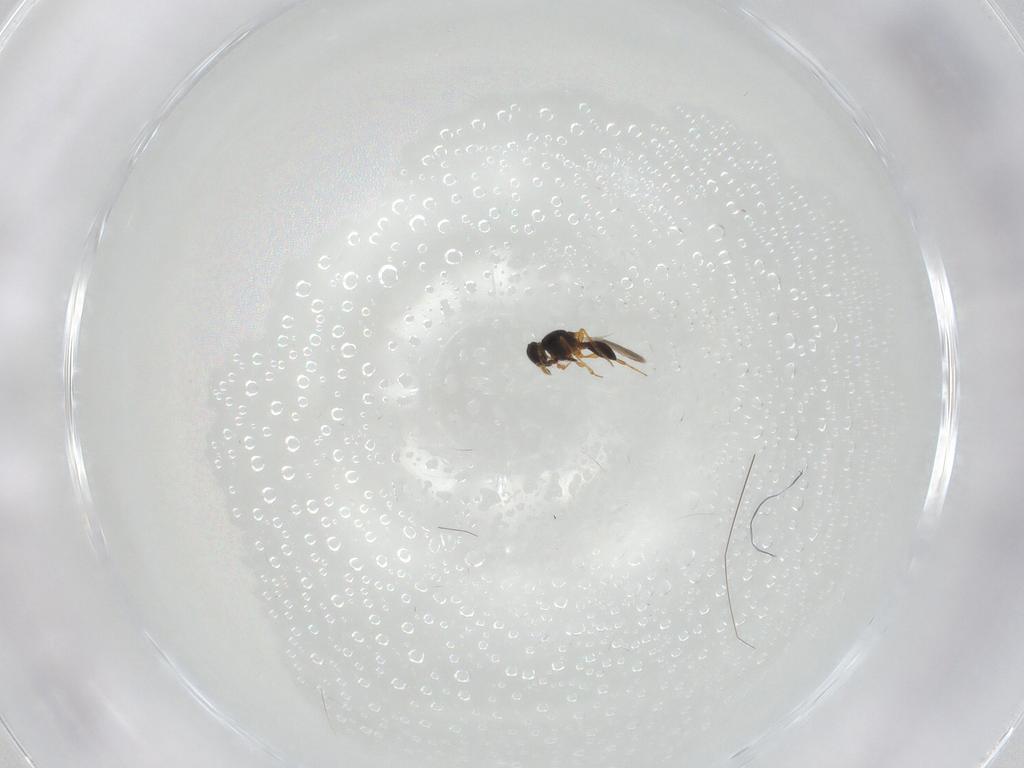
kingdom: Animalia
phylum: Arthropoda
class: Insecta
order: Hymenoptera
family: Platygastridae
